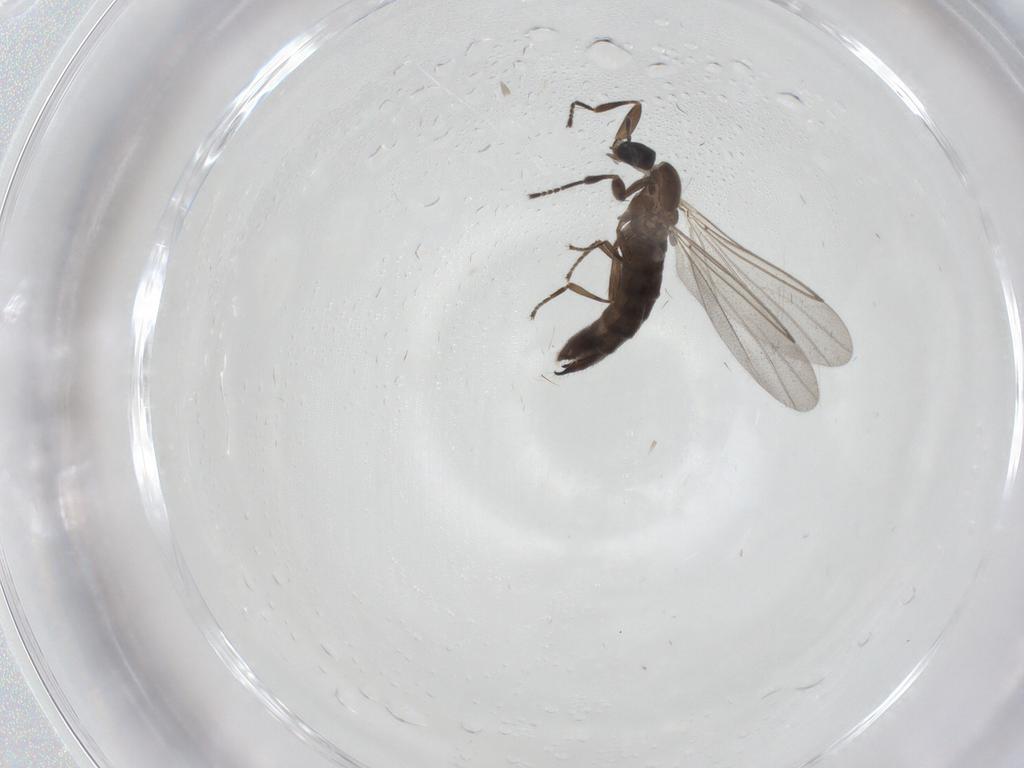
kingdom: Animalia
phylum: Arthropoda
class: Insecta
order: Diptera
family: Scatopsidae
